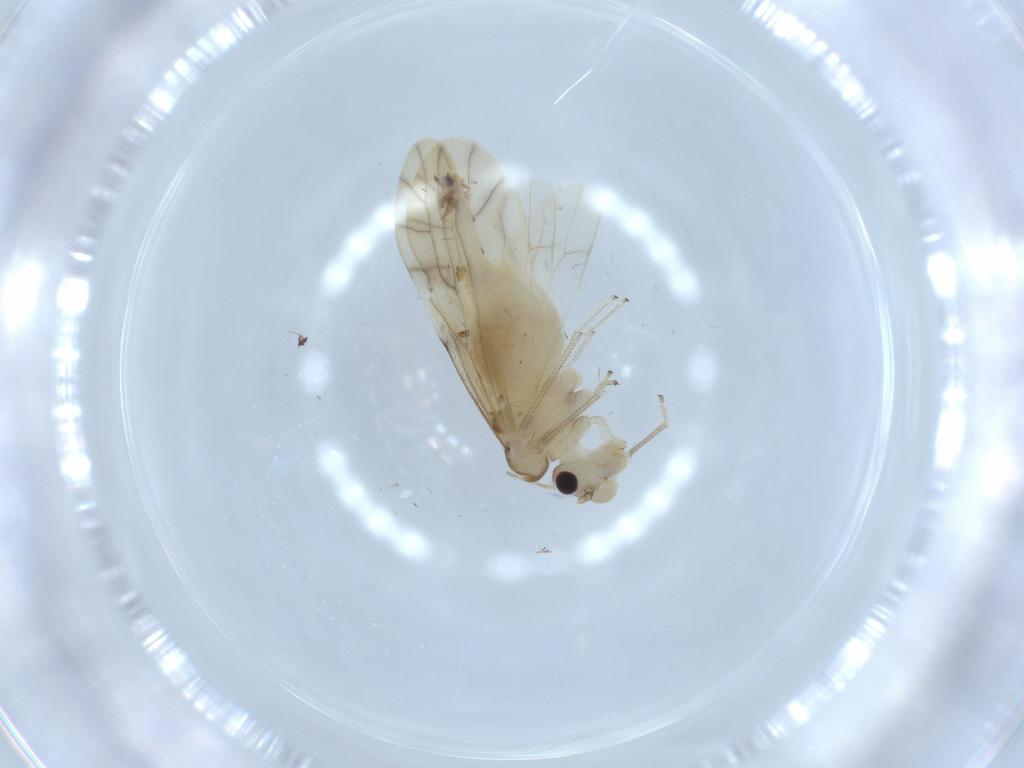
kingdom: Animalia
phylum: Arthropoda
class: Insecta
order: Psocodea
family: Caeciliusidae
